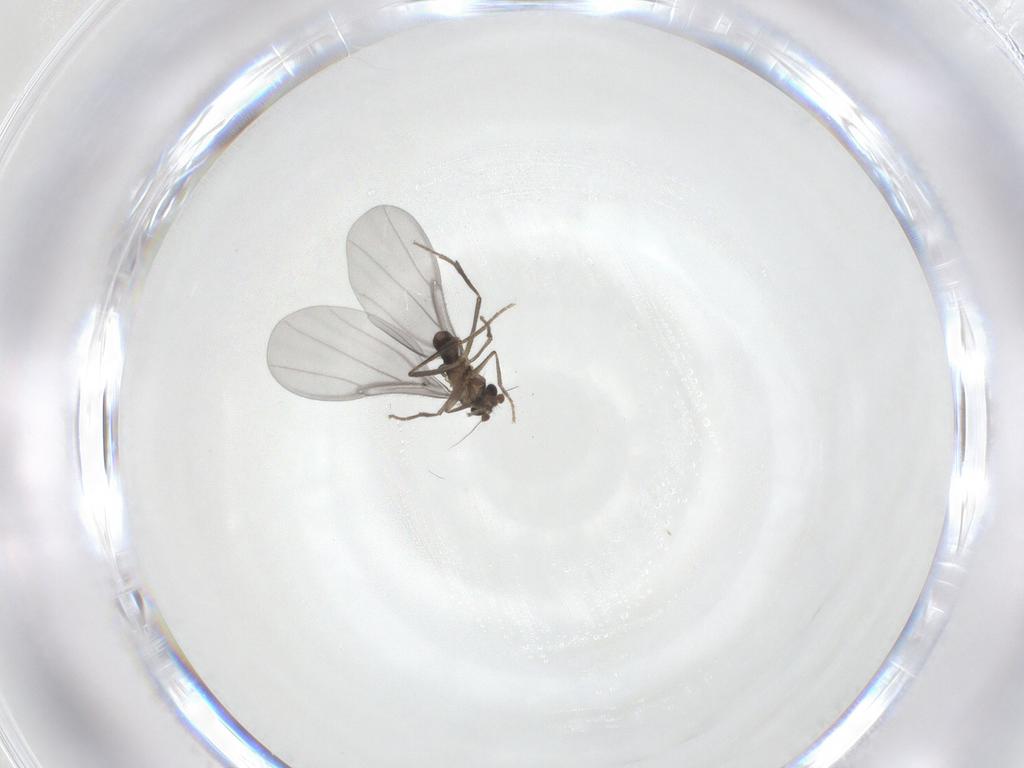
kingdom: Animalia
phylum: Arthropoda
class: Insecta
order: Diptera
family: Phoridae
